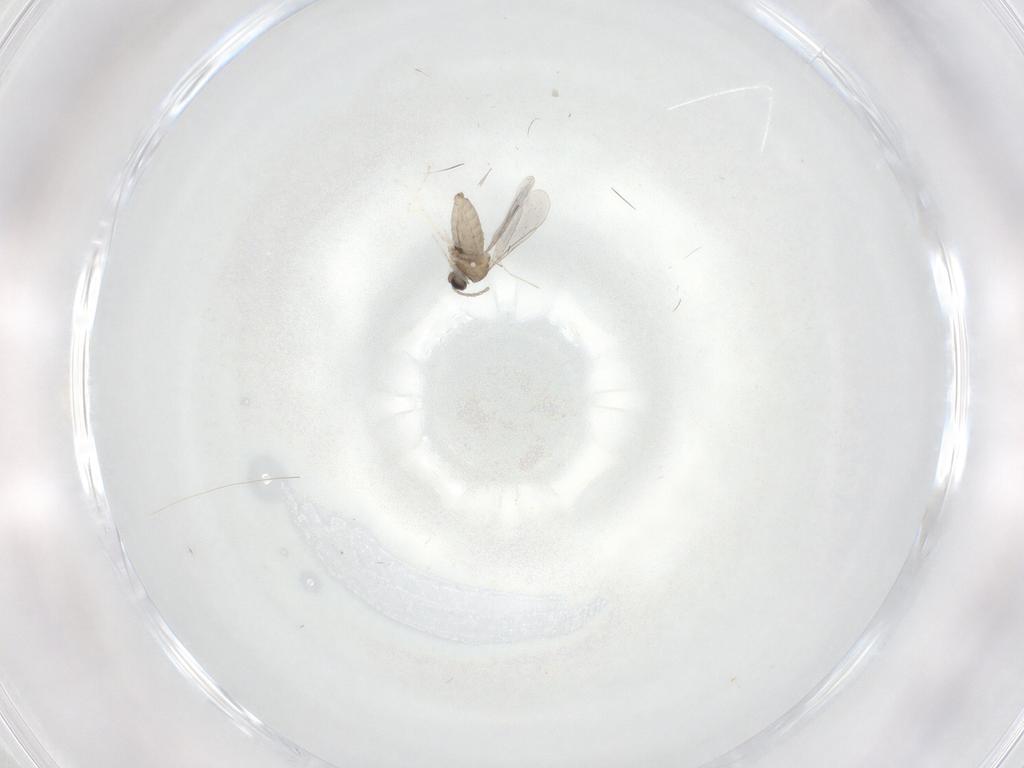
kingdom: Animalia
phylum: Arthropoda
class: Insecta
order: Diptera
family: Cecidomyiidae
